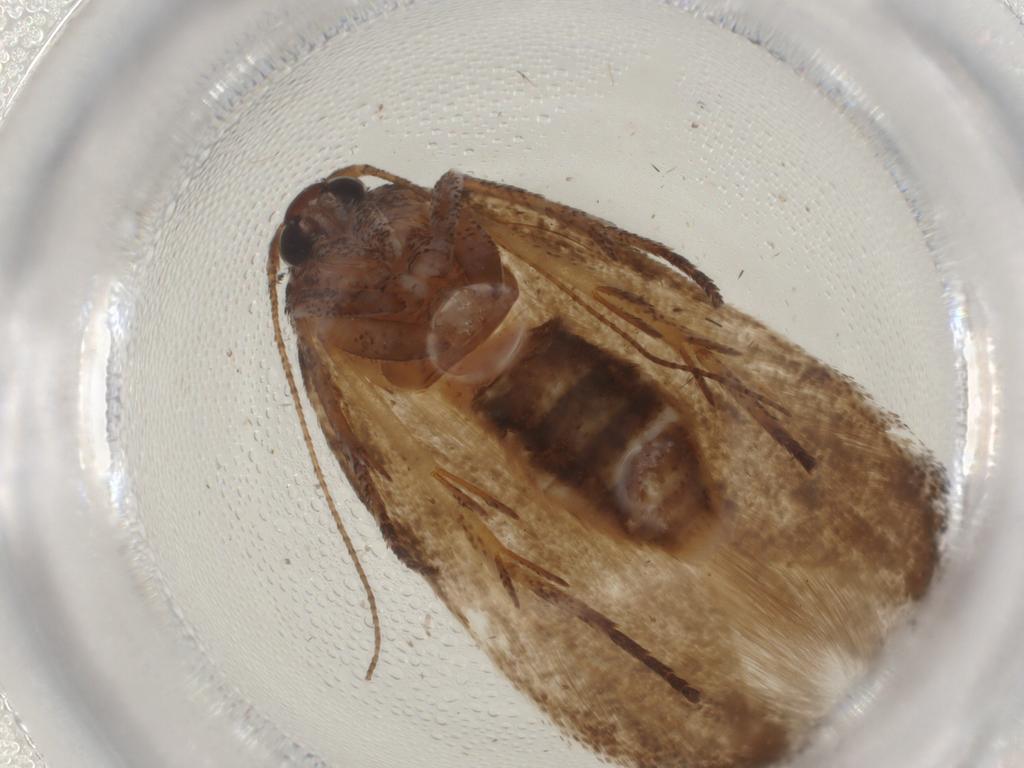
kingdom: Animalia
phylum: Arthropoda
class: Insecta
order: Lepidoptera
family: Cosmopterigidae
